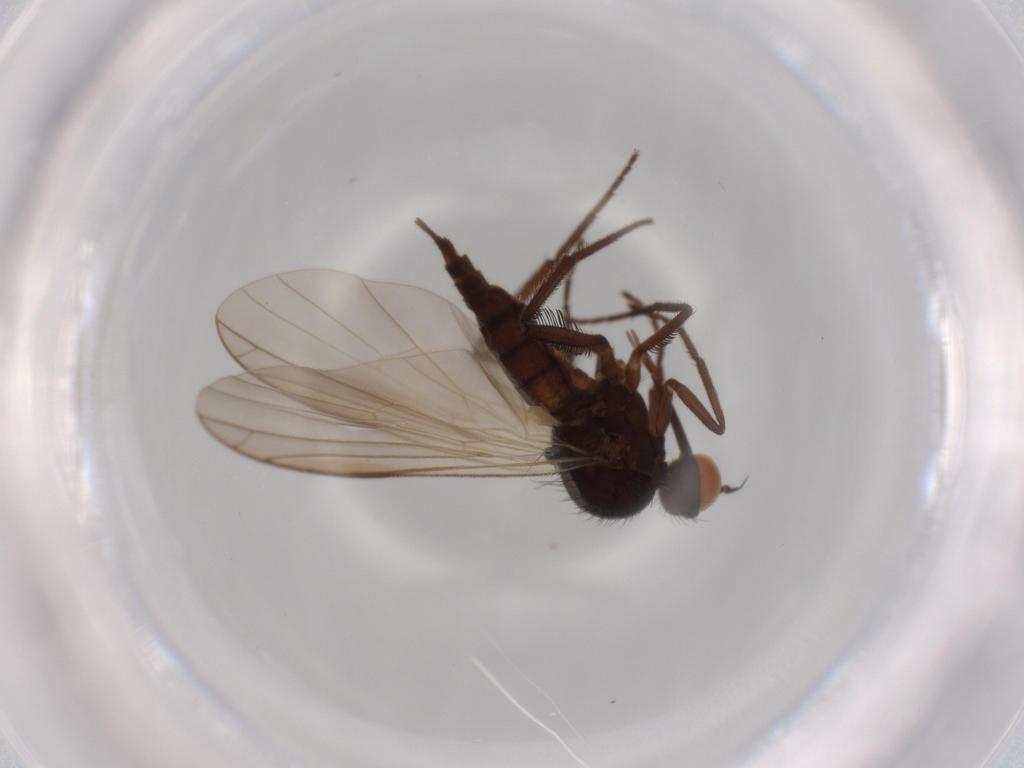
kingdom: Animalia
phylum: Arthropoda
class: Insecta
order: Diptera
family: Empididae
